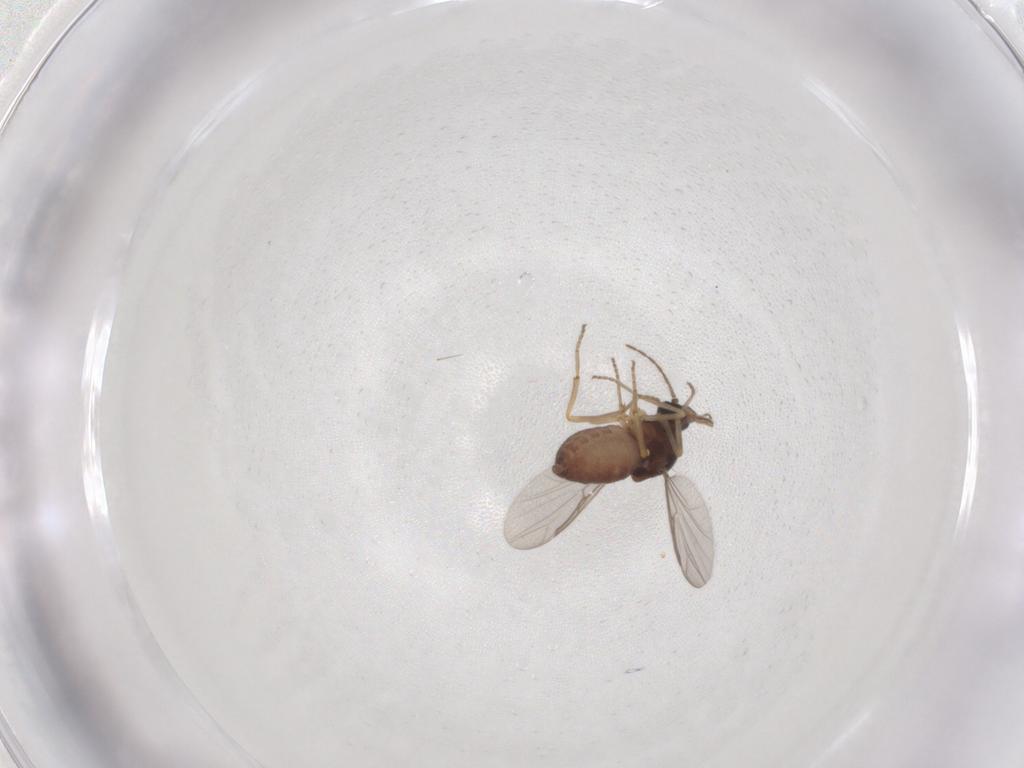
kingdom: Animalia
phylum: Arthropoda
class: Insecta
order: Diptera
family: Ceratopogonidae
